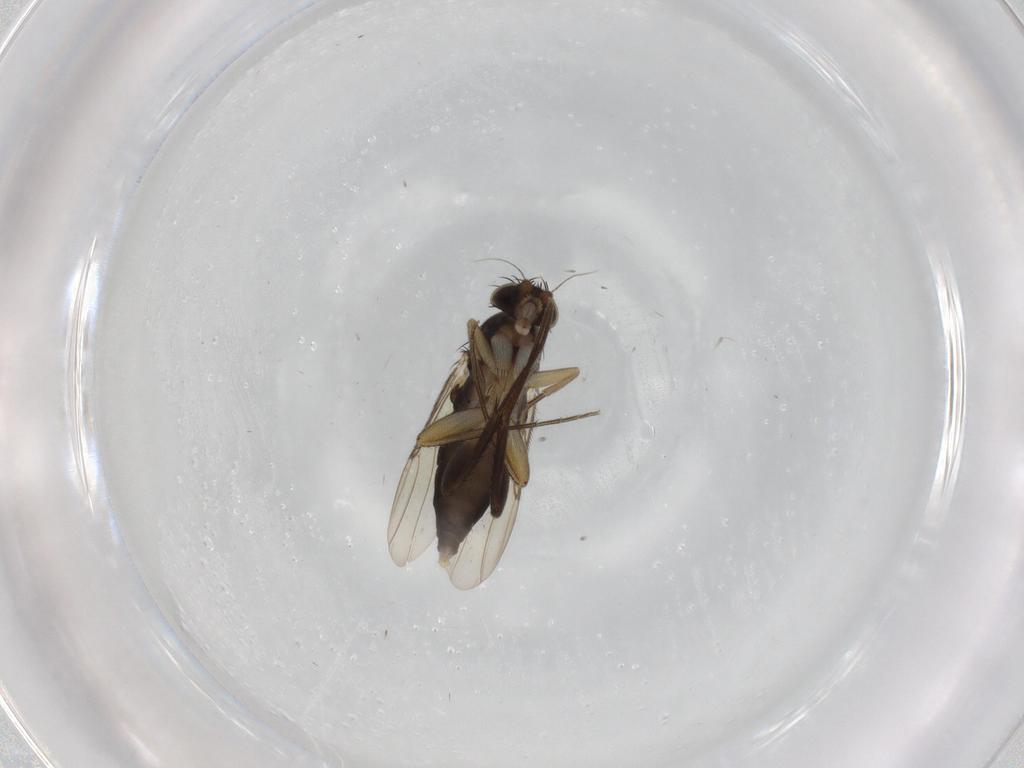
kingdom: Animalia
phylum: Arthropoda
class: Insecta
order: Diptera
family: Phoridae
